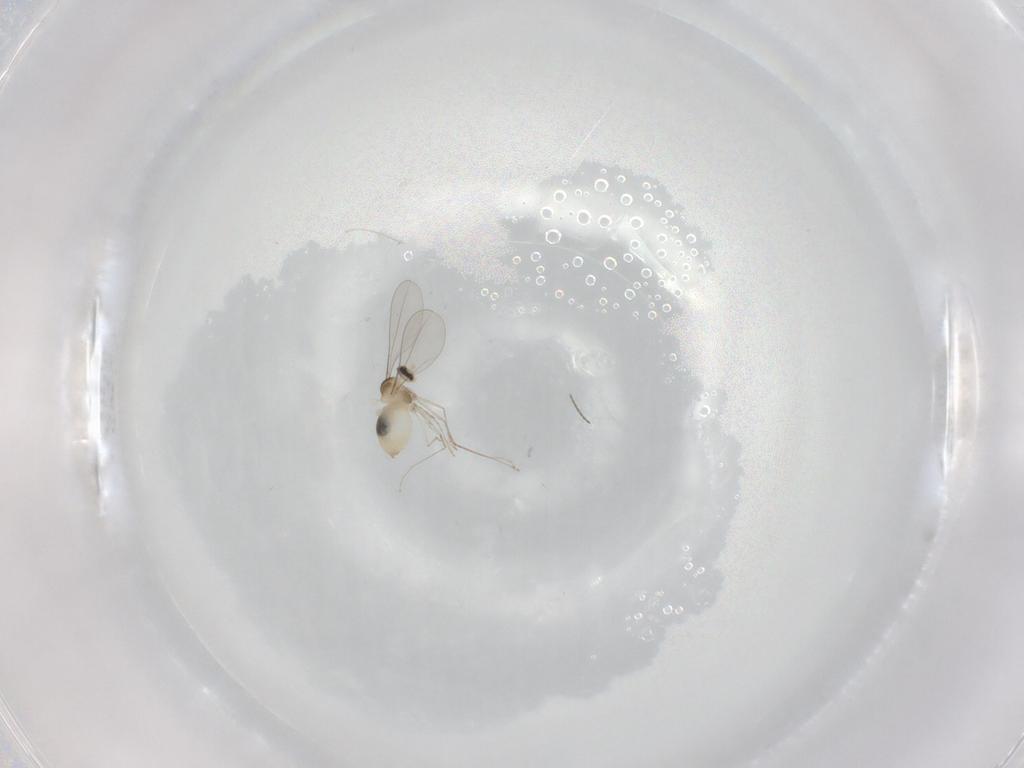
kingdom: Animalia
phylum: Arthropoda
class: Insecta
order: Diptera
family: Cecidomyiidae
